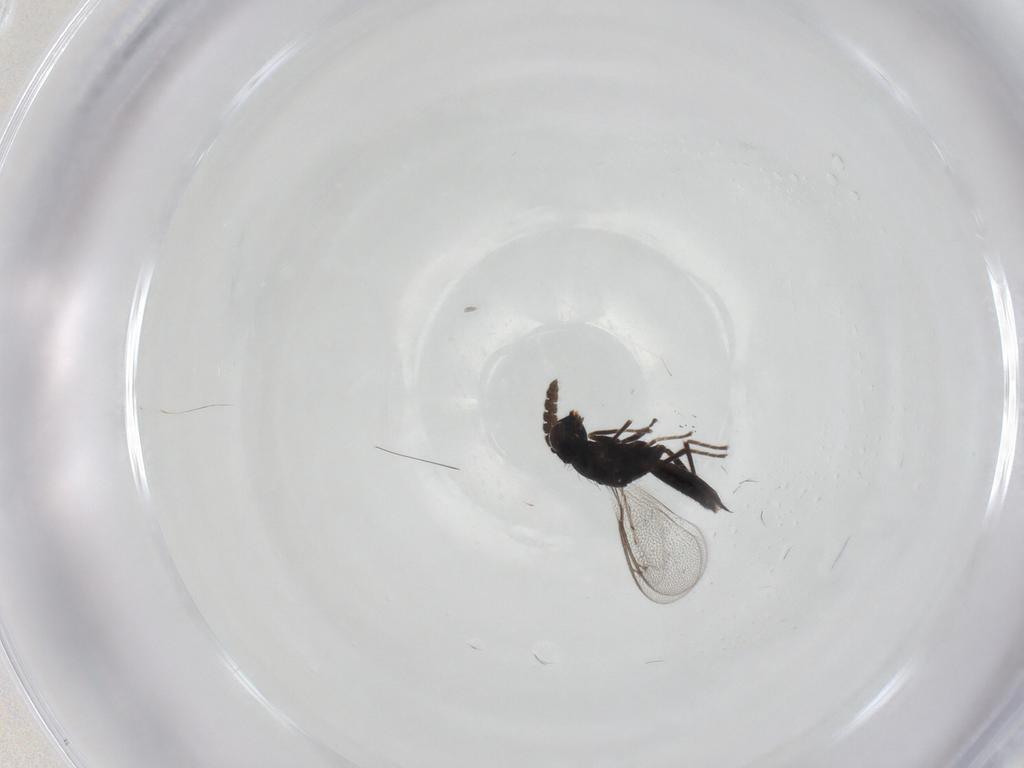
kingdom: Animalia
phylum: Arthropoda
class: Insecta
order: Hymenoptera
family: Eulophidae
